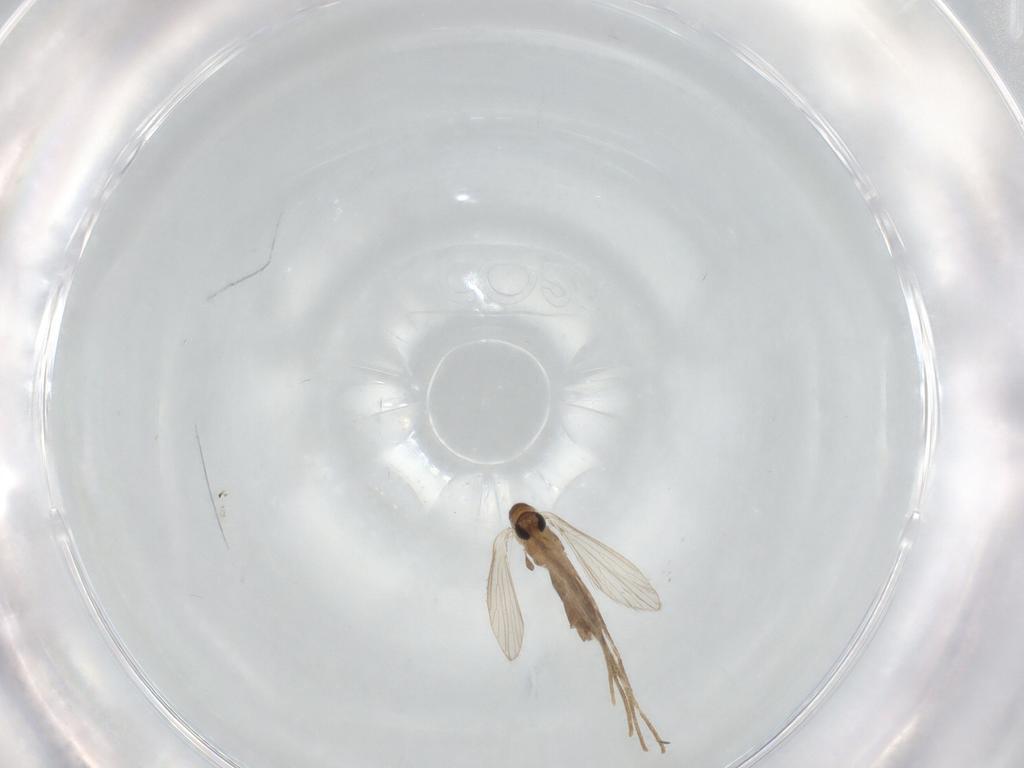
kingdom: Animalia
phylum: Arthropoda
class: Insecta
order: Diptera
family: Psychodidae
